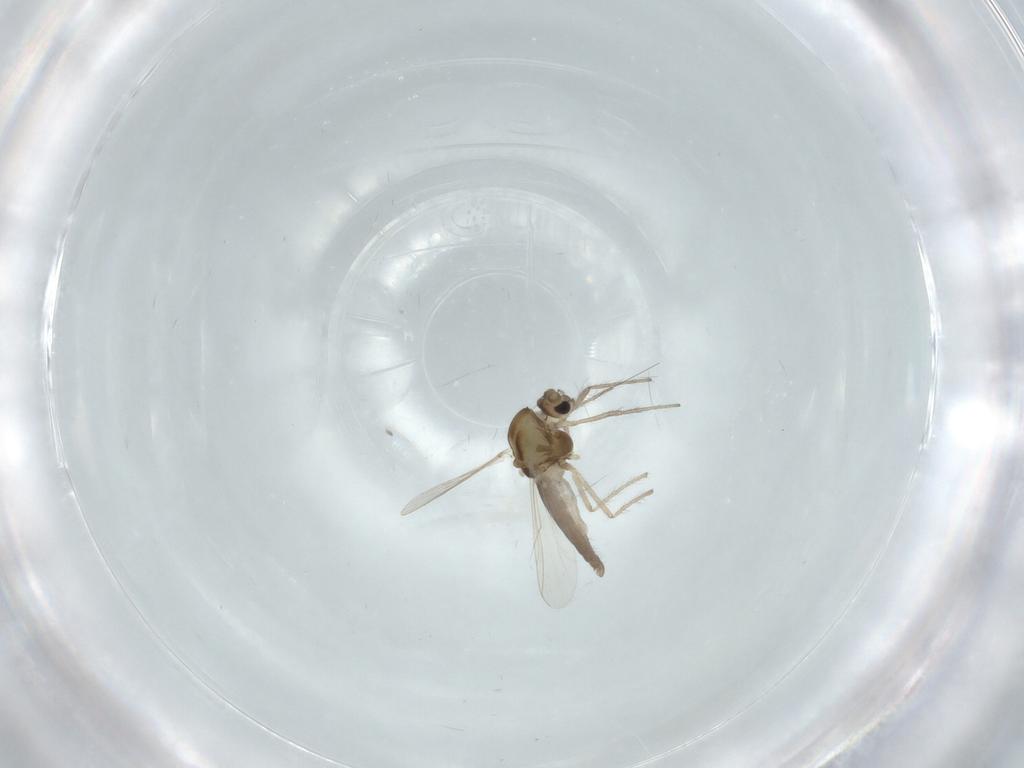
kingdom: Animalia
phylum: Arthropoda
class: Insecta
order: Diptera
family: Chironomidae
